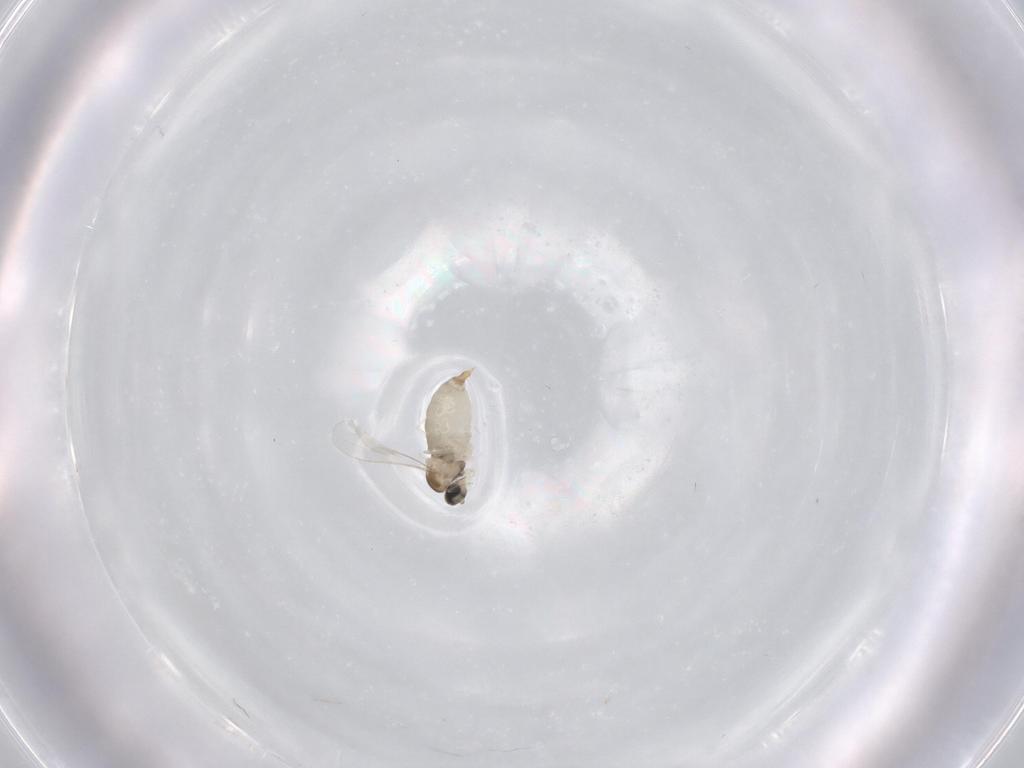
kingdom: Animalia
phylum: Arthropoda
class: Insecta
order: Diptera
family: Cecidomyiidae
